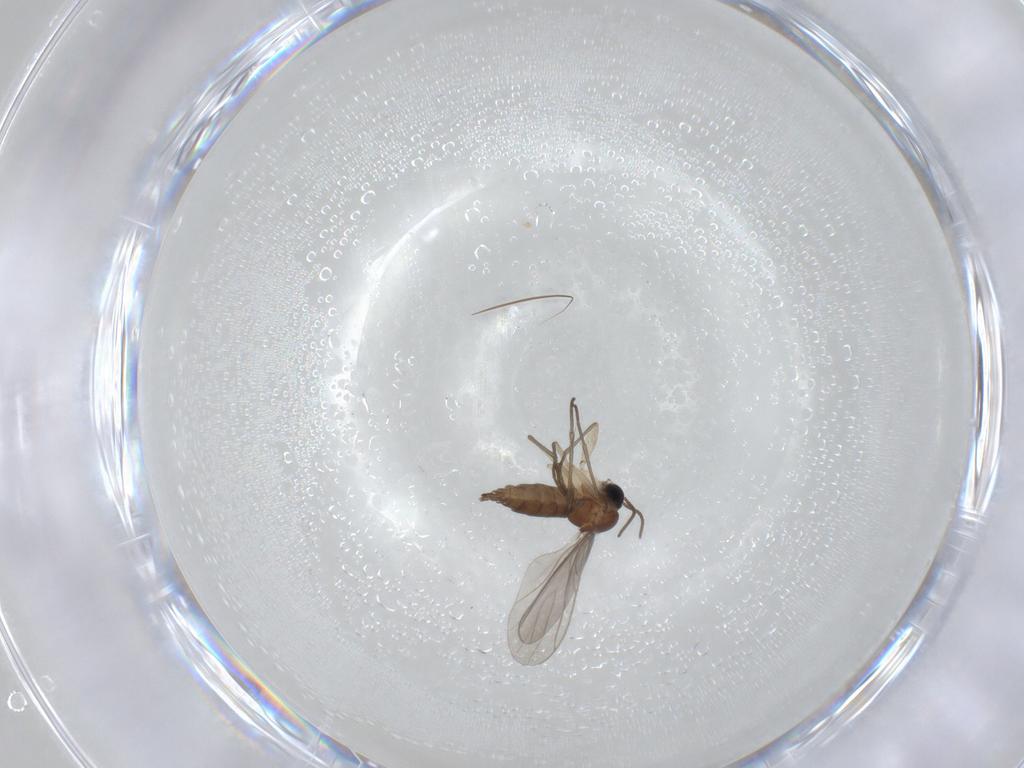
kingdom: Animalia
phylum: Arthropoda
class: Insecta
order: Diptera
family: Sciaridae
